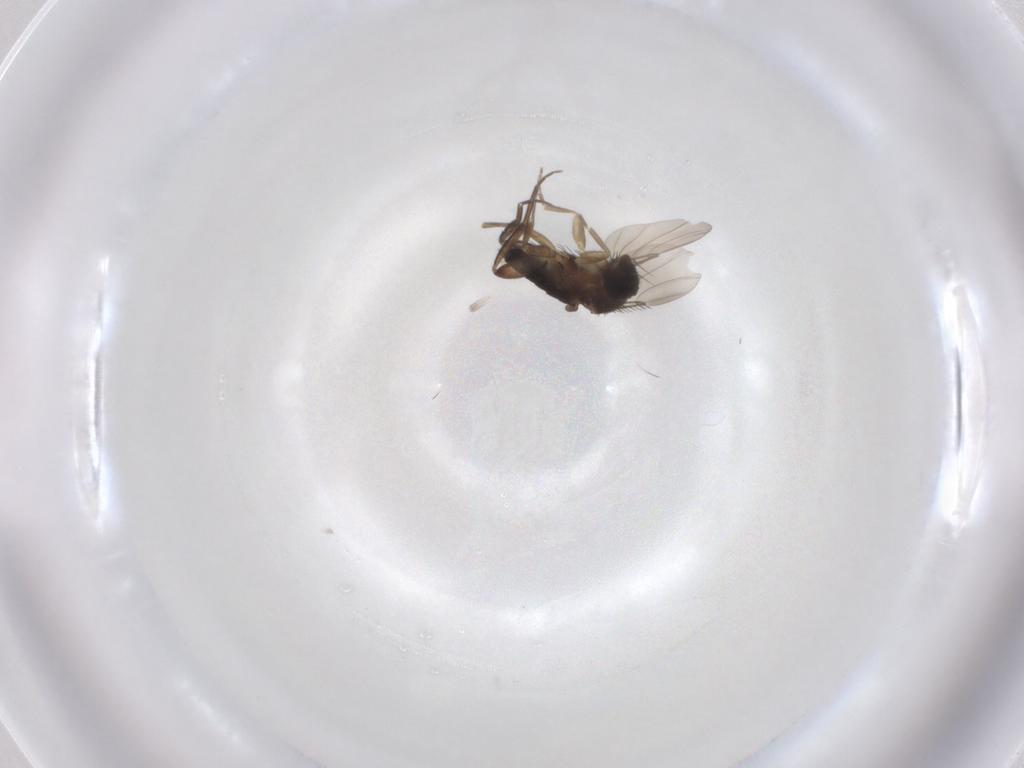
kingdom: Animalia
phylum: Arthropoda
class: Insecta
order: Diptera
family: Phoridae
